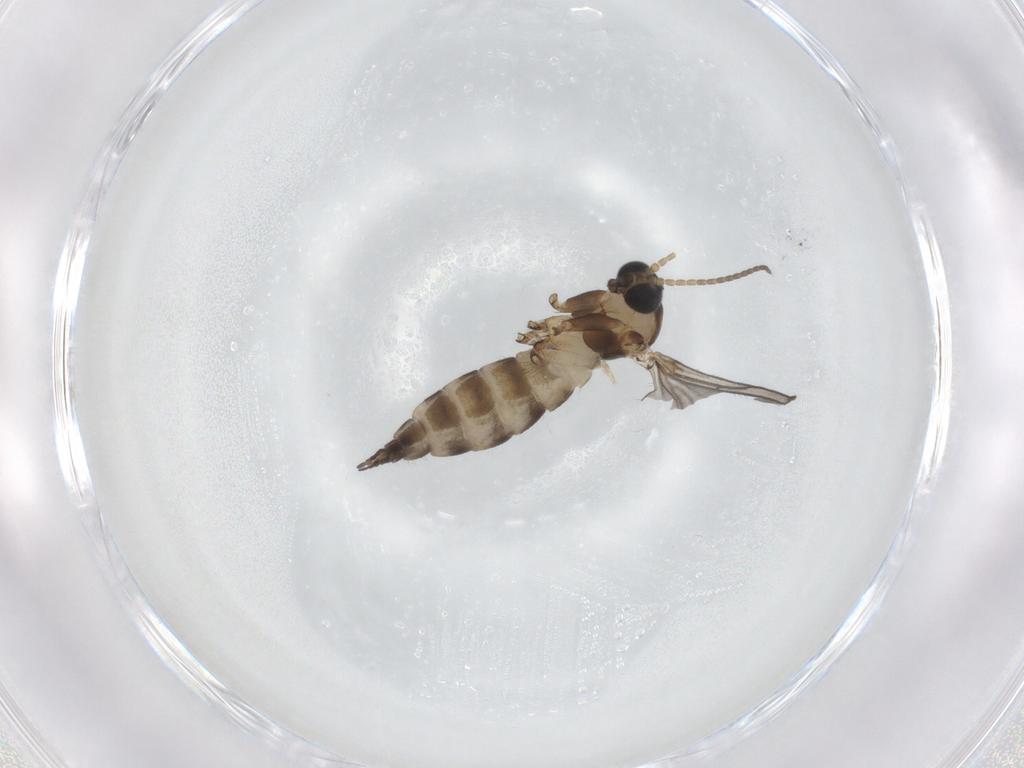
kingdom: Animalia
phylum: Arthropoda
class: Insecta
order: Diptera
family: Sciaridae
